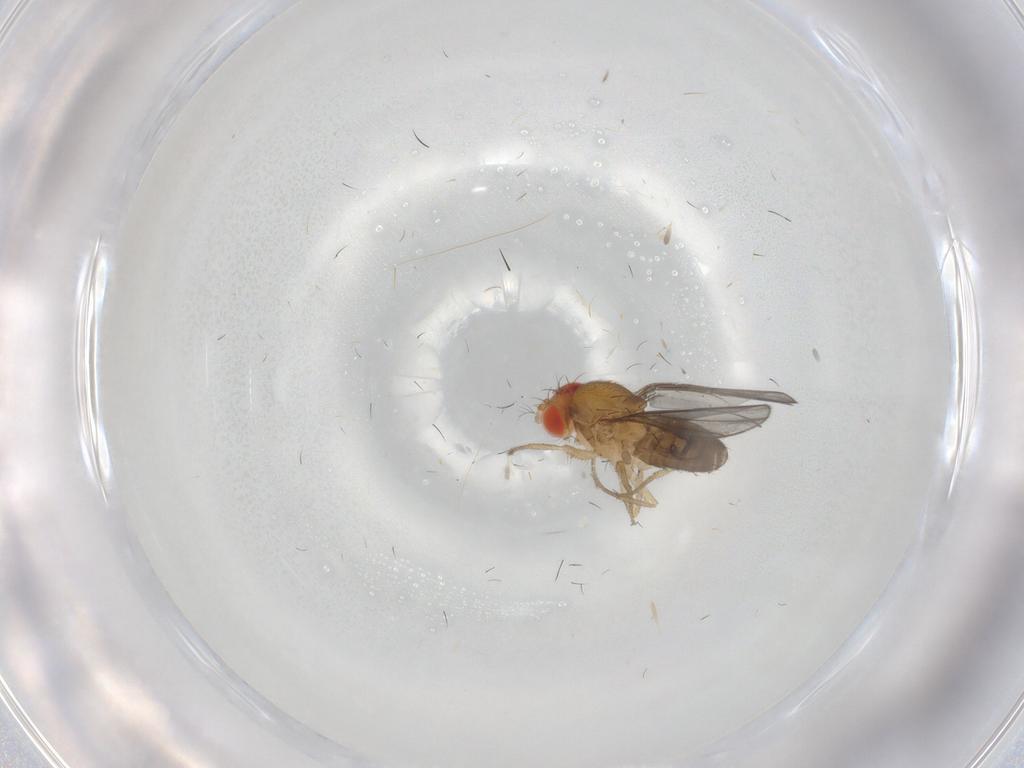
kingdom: Animalia
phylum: Arthropoda
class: Insecta
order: Diptera
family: Drosophilidae
